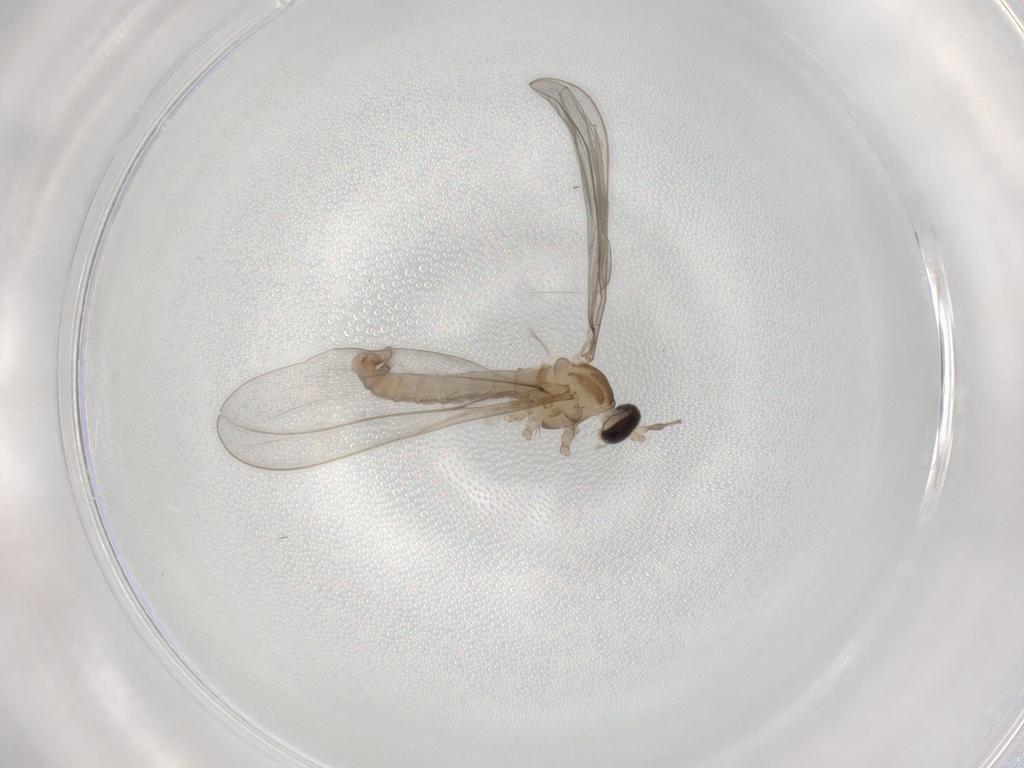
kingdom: Animalia
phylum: Arthropoda
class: Insecta
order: Diptera
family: Cecidomyiidae
